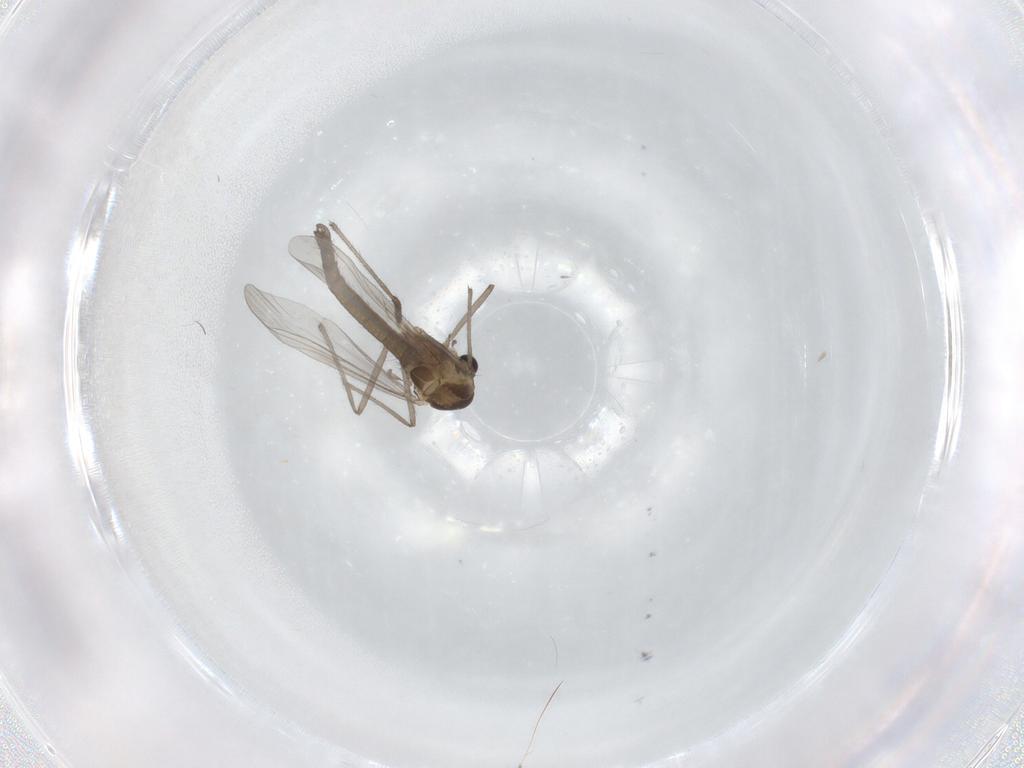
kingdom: Animalia
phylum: Arthropoda
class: Insecta
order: Diptera
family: Chironomidae
